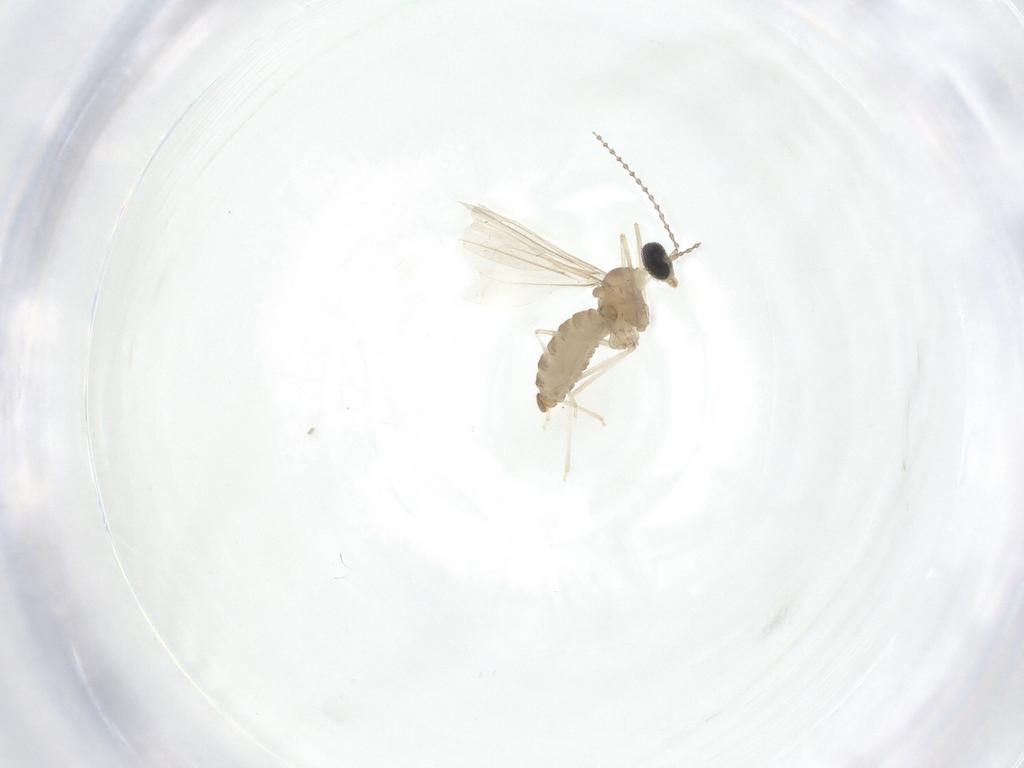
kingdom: Animalia
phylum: Arthropoda
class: Insecta
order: Diptera
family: Cecidomyiidae
